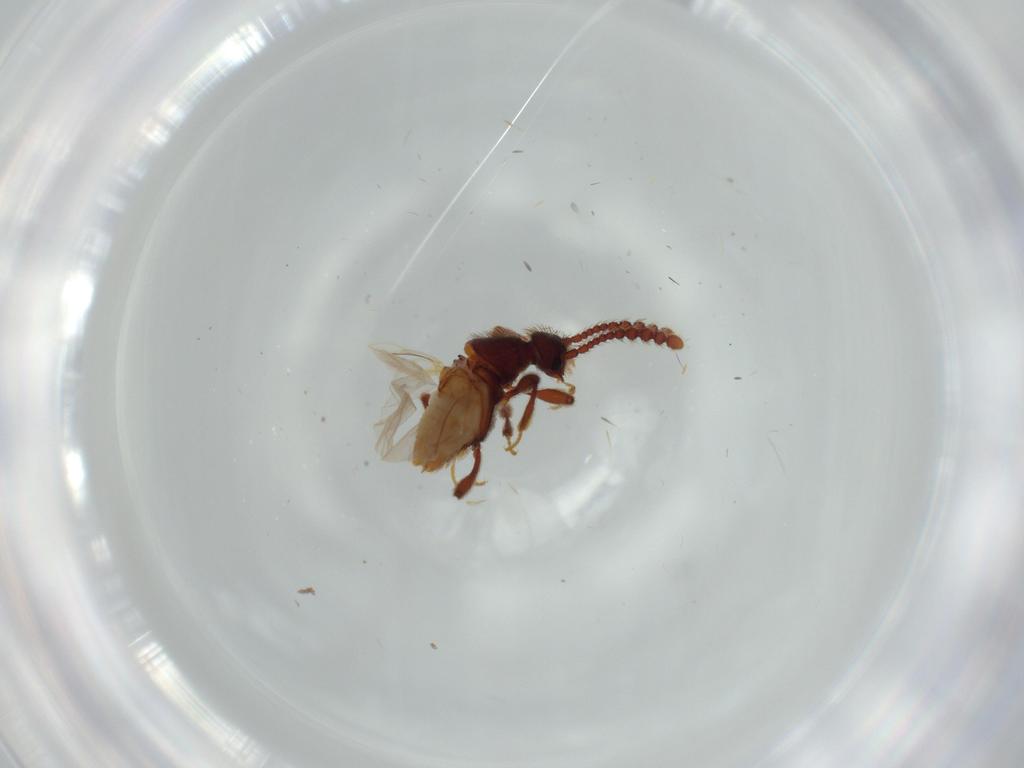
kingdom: Animalia
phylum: Arthropoda
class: Insecta
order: Coleoptera
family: Staphylinidae
